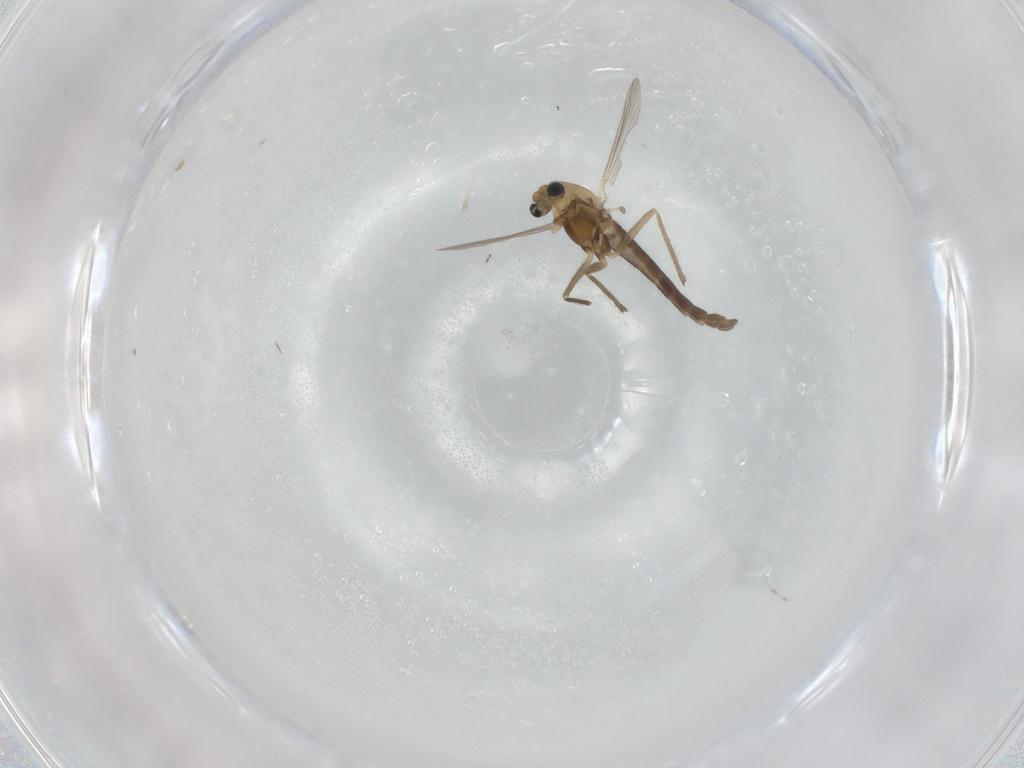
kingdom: Animalia
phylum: Arthropoda
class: Insecta
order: Diptera
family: Chironomidae
